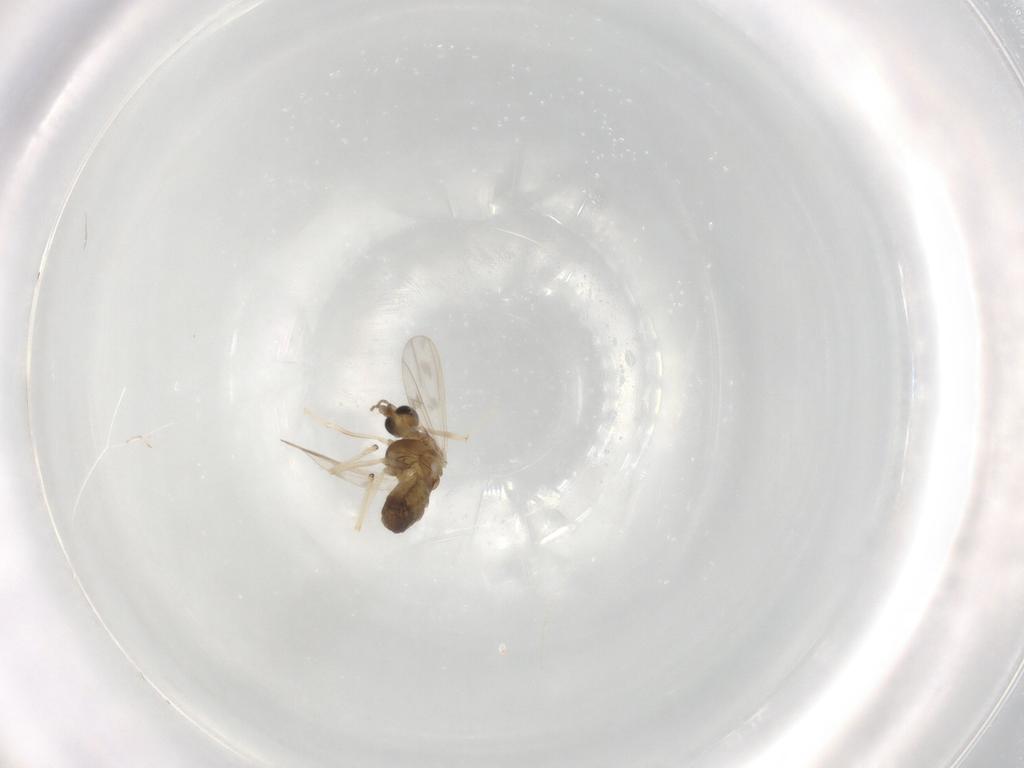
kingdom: Animalia
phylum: Arthropoda
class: Insecta
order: Diptera
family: Chironomidae
